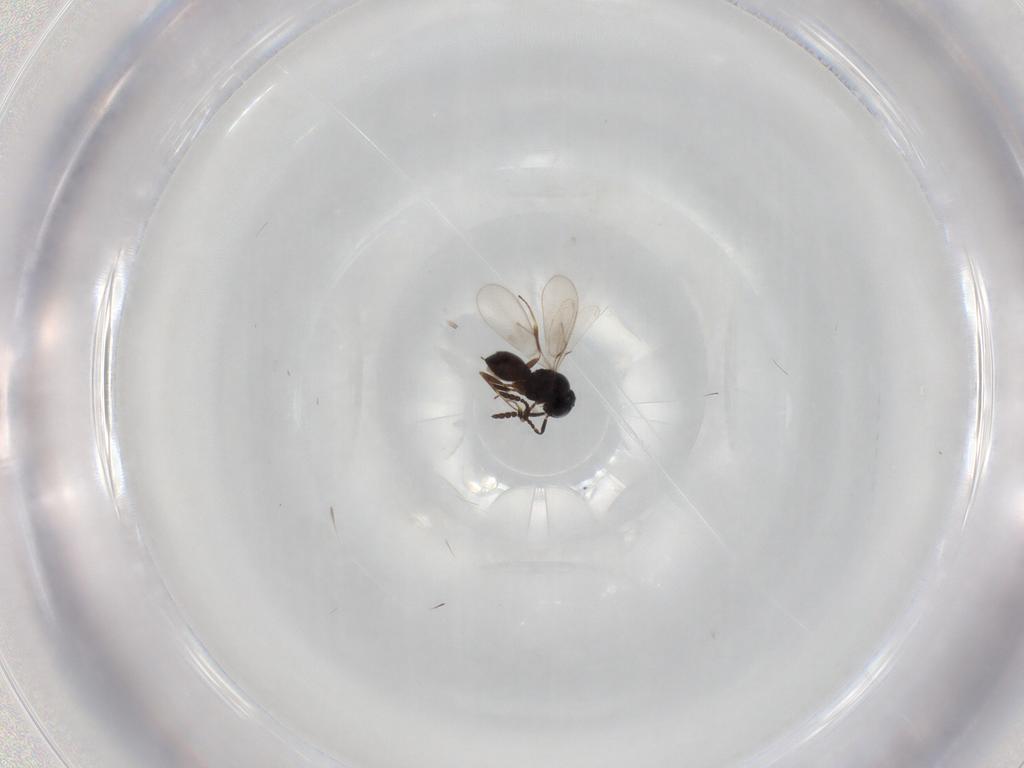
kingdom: Animalia
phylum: Arthropoda
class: Insecta
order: Hymenoptera
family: Scelionidae
